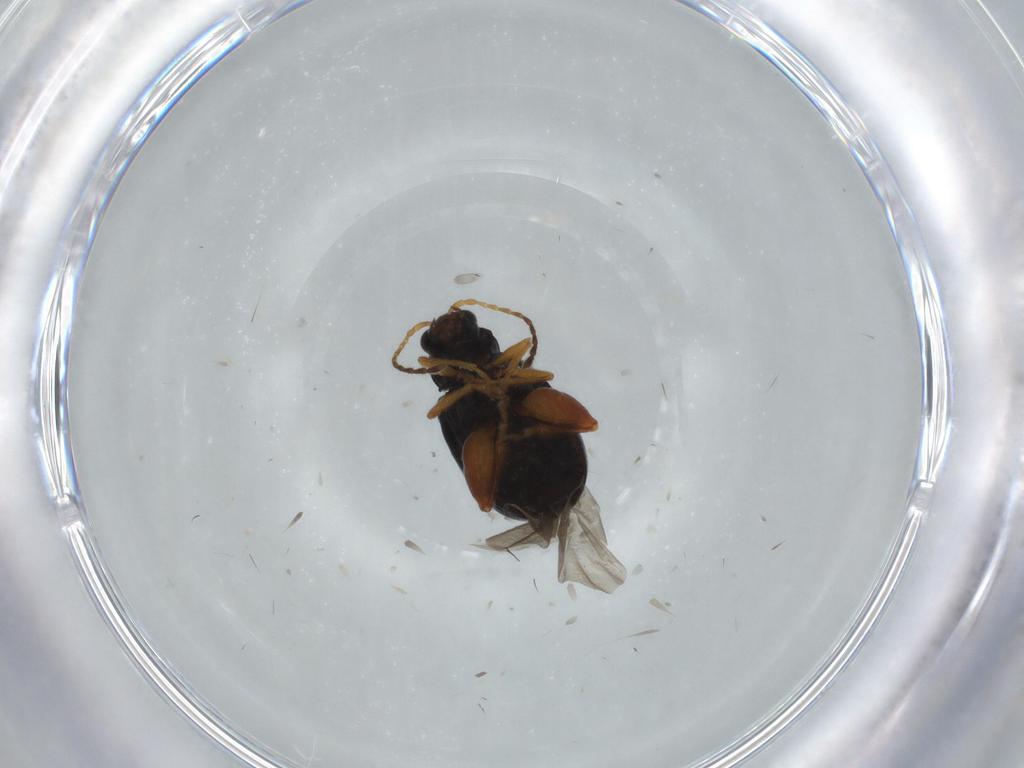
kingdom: Animalia
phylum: Arthropoda
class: Insecta
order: Coleoptera
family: Chrysomelidae
